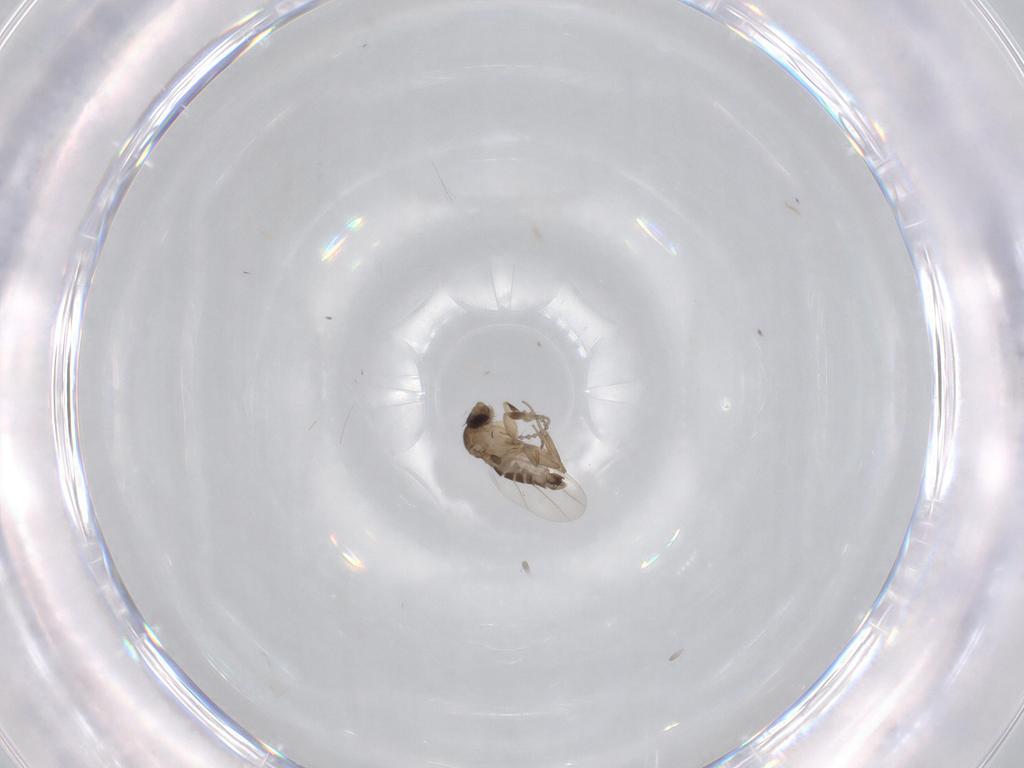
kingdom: Animalia
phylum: Arthropoda
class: Insecta
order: Diptera
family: Phoridae
